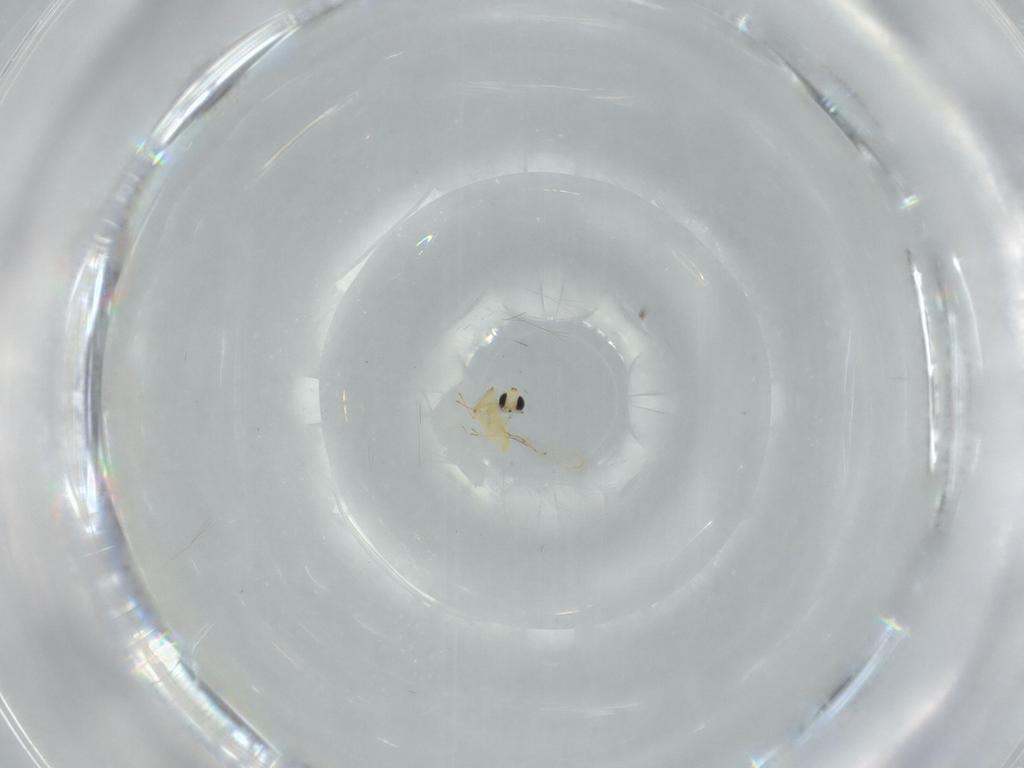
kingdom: Animalia
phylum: Arthropoda
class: Insecta
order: Hymenoptera
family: Trichogrammatidae
